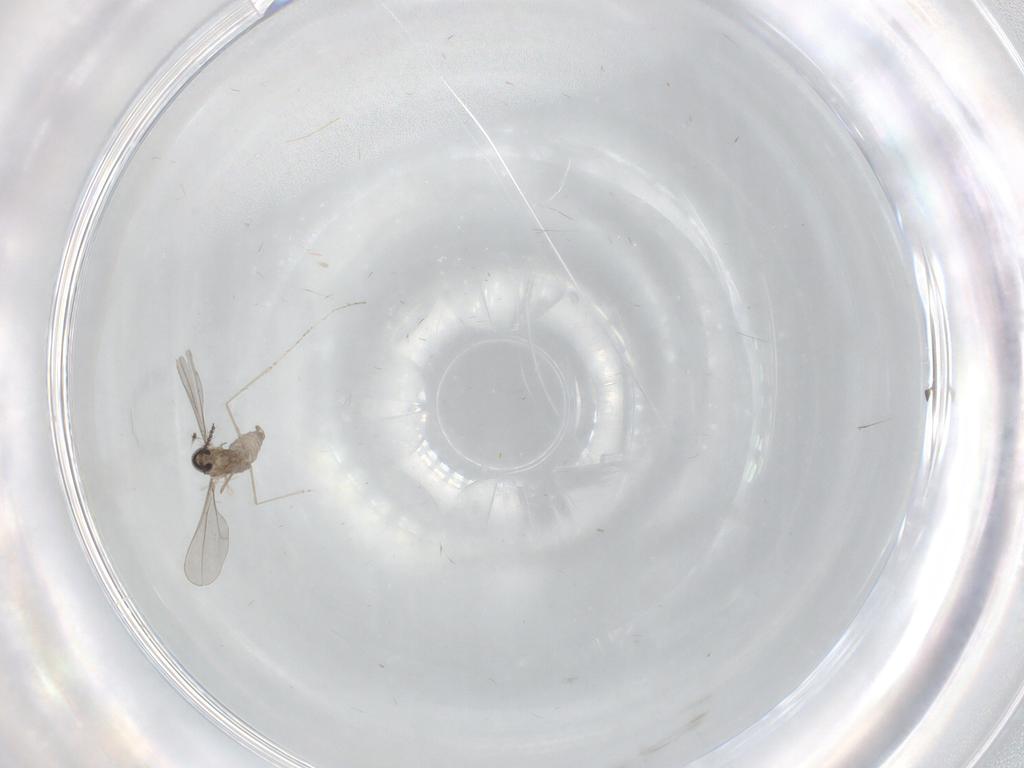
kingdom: Animalia
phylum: Arthropoda
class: Insecta
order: Diptera
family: Cecidomyiidae
